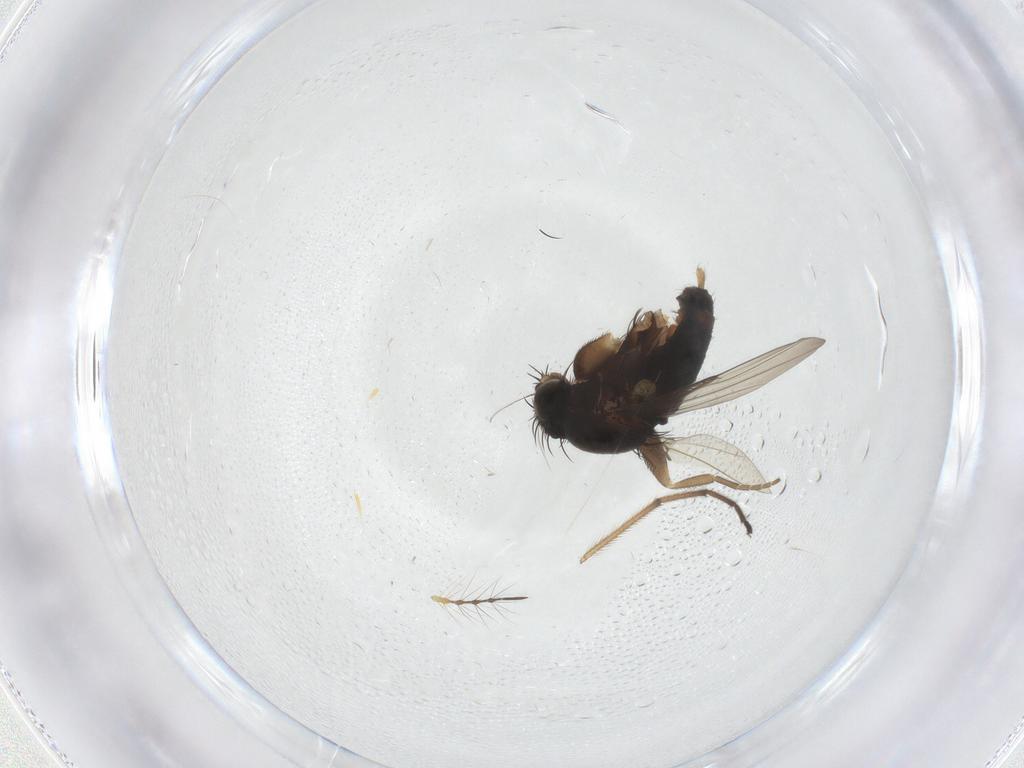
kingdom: Animalia
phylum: Arthropoda
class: Insecta
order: Diptera
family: Phoridae
